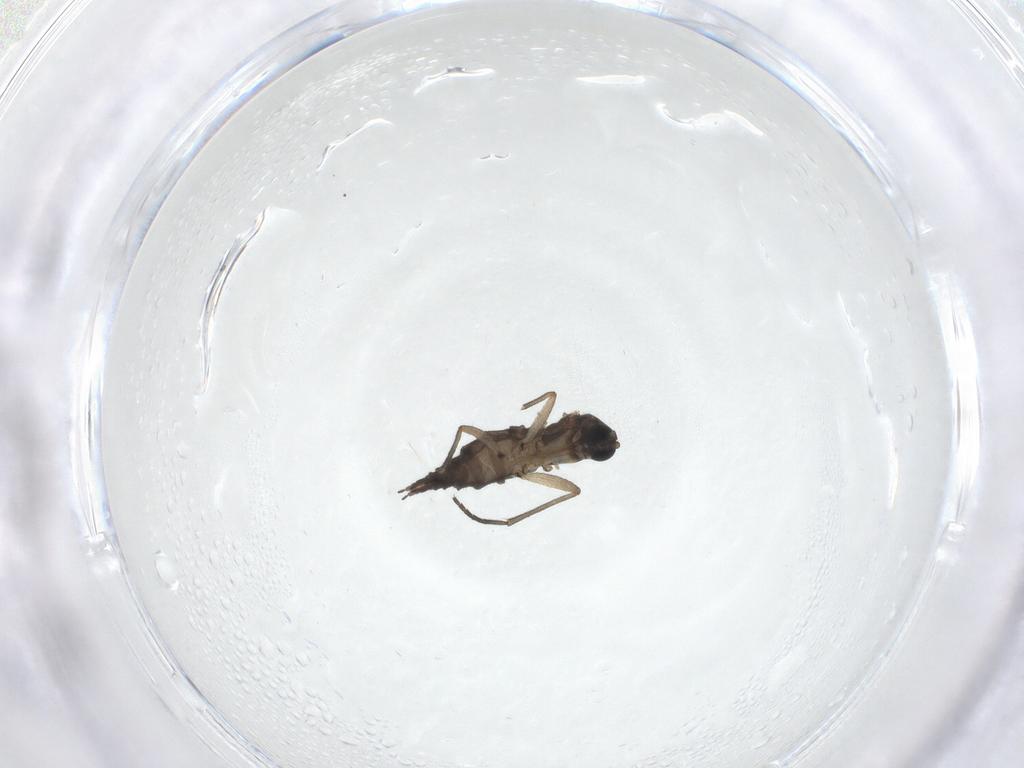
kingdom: Animalia
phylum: Arthropoda
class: Insecta
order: Diptera
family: Sciaridae
